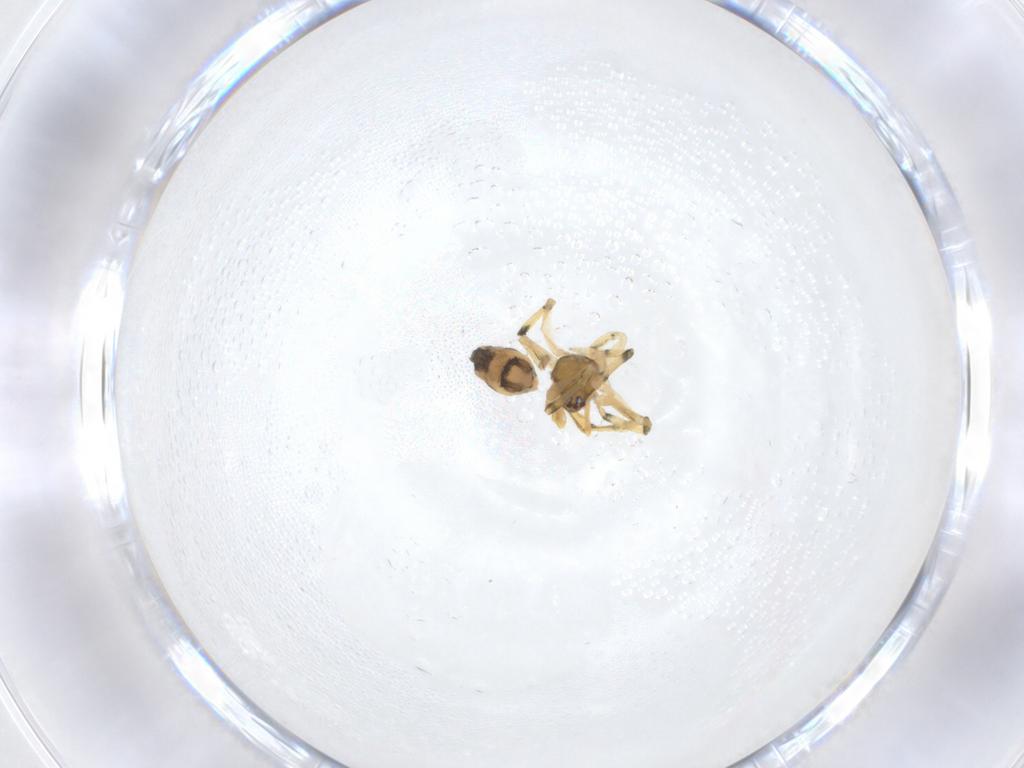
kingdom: Animalia
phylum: Arthropoda
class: Arachnida
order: Araneae
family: Theridiidae
